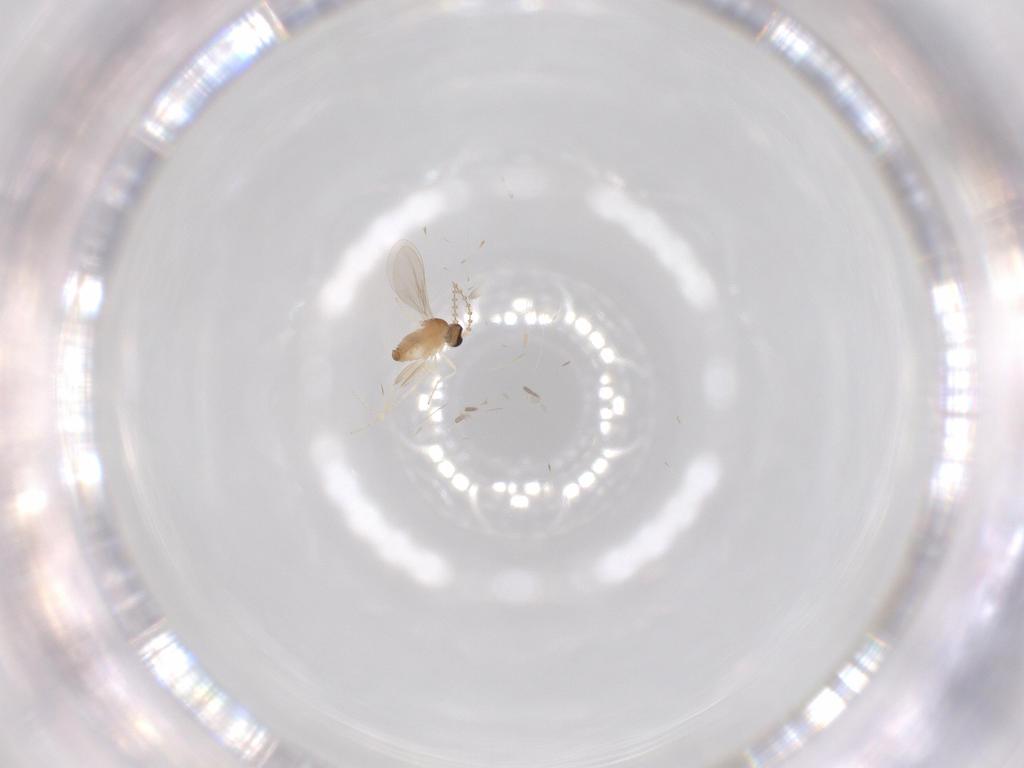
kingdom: Animalia
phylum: Arthropoda
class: Insecta
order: Diptera
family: Cecidomyiidae
